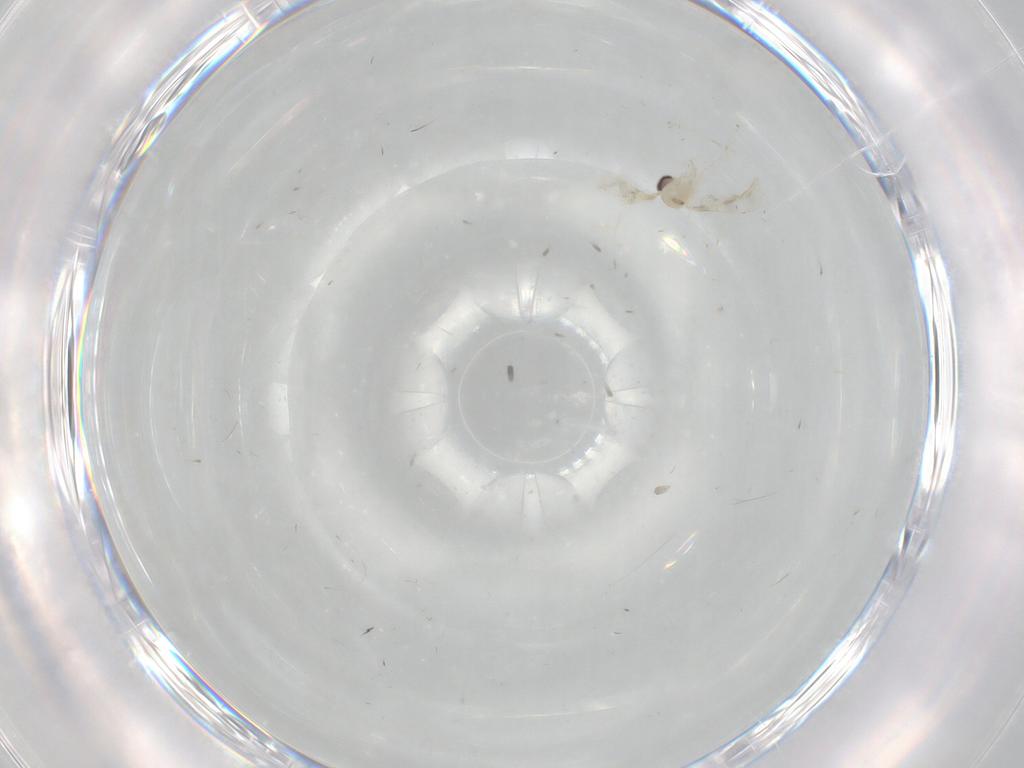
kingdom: Animalia
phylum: Arthropoda
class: Insecta
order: Diptera
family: Cecidomyiidae
